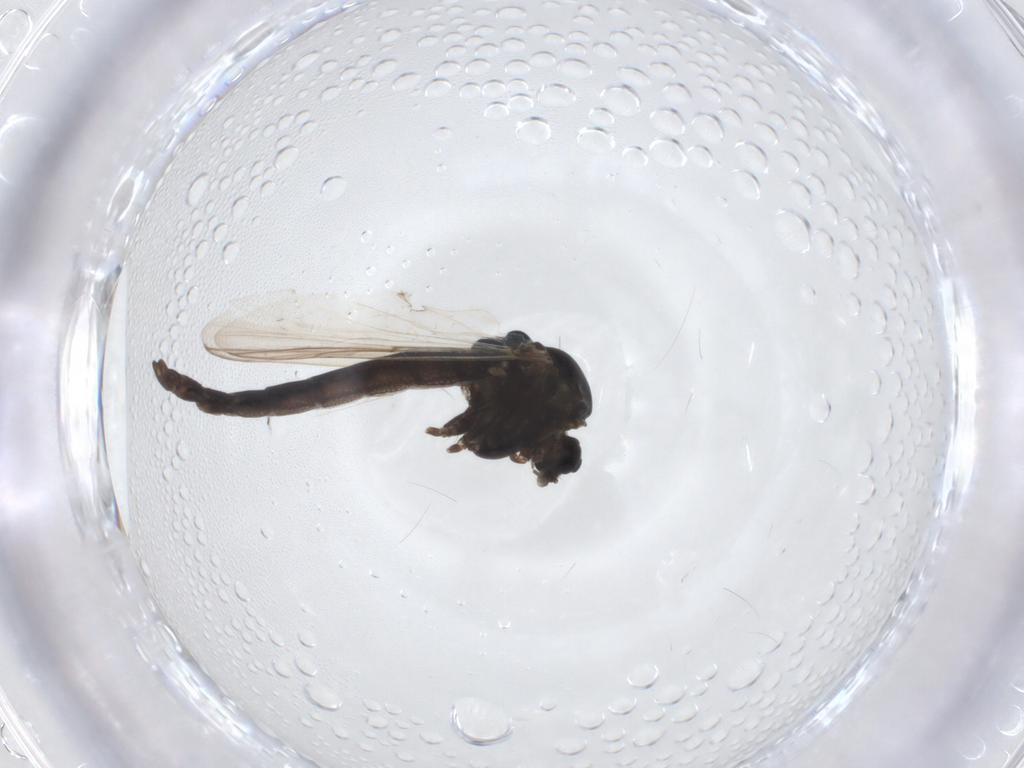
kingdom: Animalia
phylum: Arthropoda
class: Insecta
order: Diptera
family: Chironomidae
